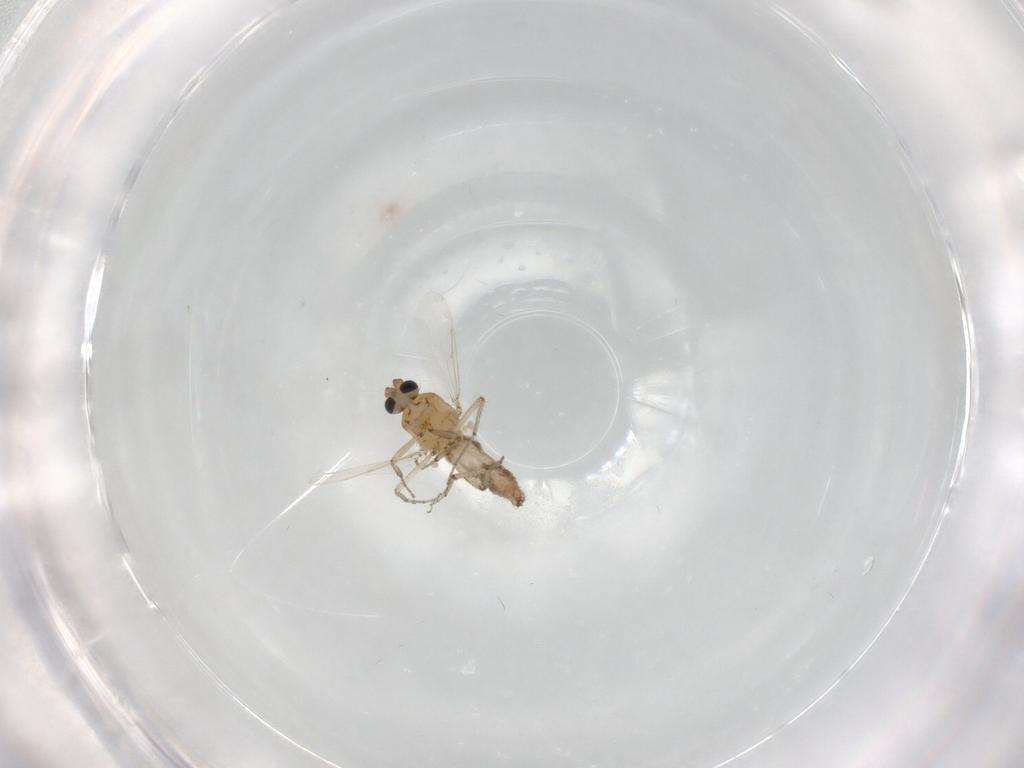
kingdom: Animalia
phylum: Arthropoda
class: Insecta
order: Diptera
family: Ceratopogonidae
